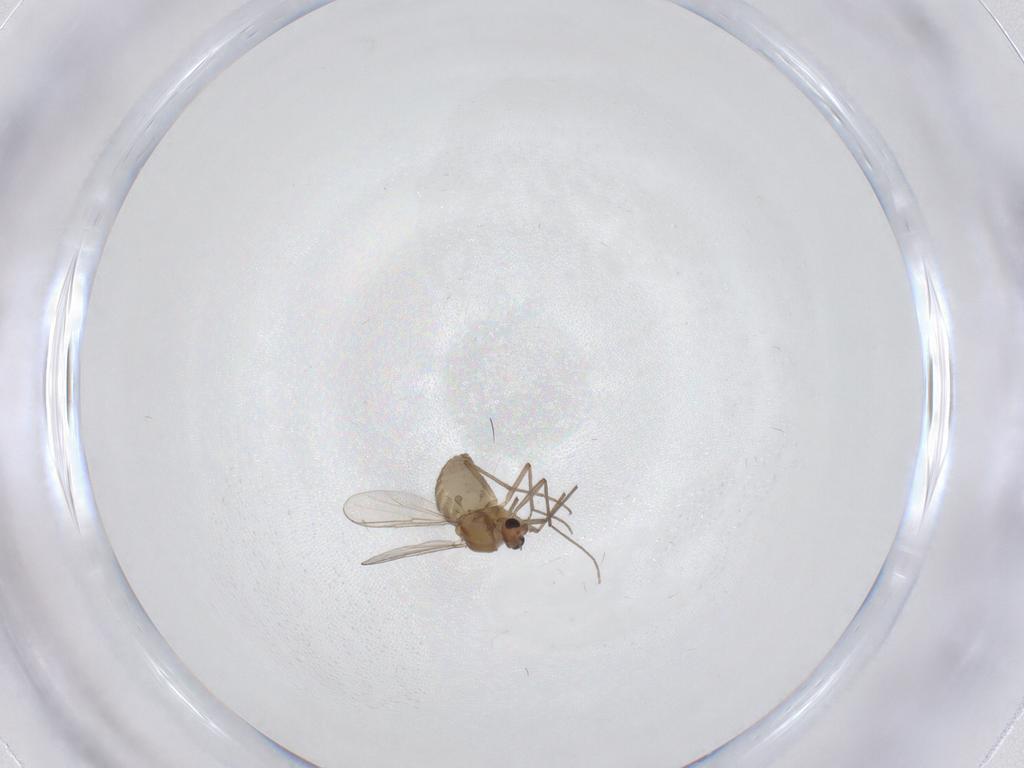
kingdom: Animalia
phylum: Arthropoda
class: Insecta
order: Diptera
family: Chironomidae
